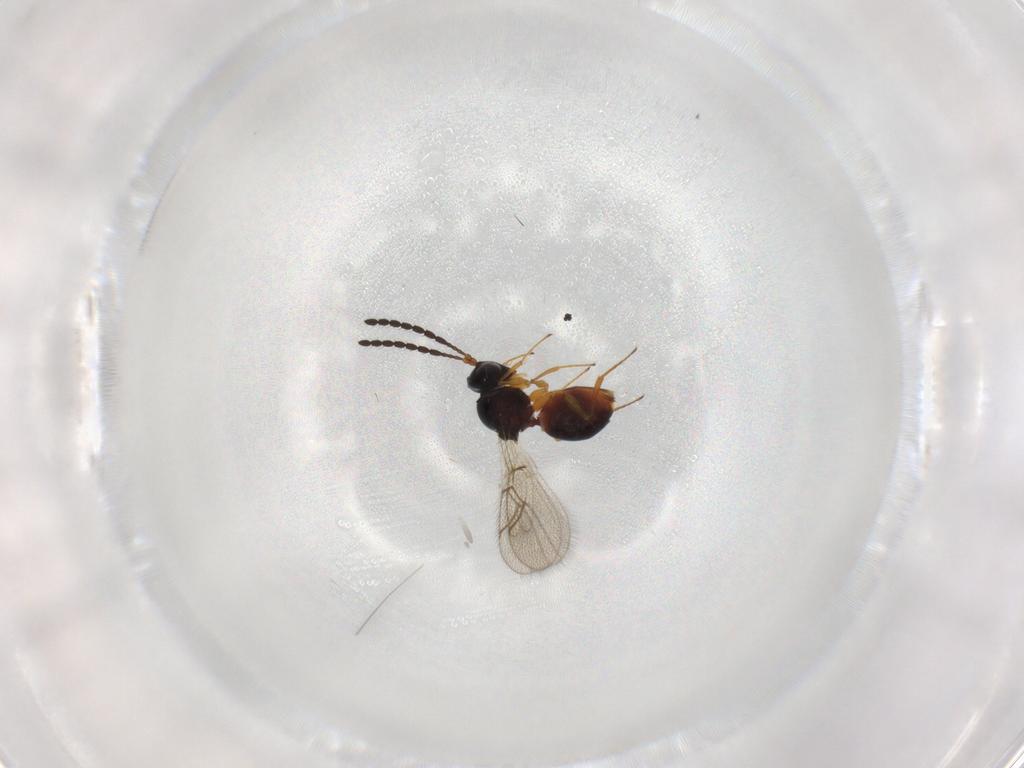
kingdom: Animalia
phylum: Arthropoda
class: Insecta
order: Hymenoptera
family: Figitidae
